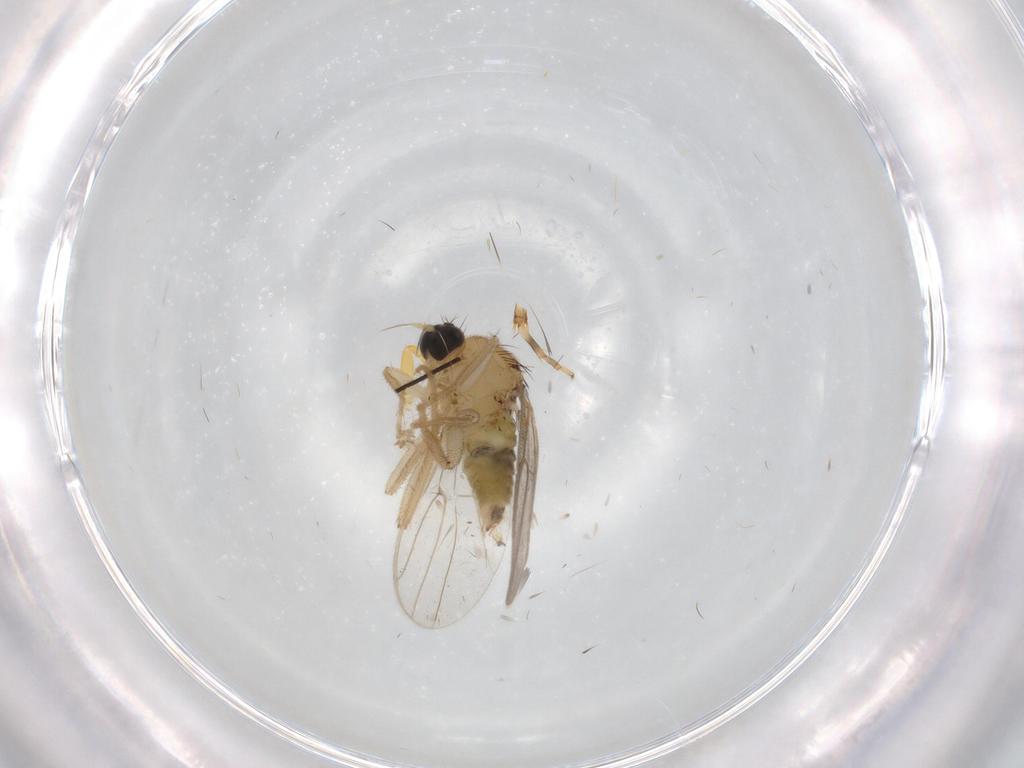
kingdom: Animalia
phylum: Arthropoda
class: Insecta
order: Diptera
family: Hybotidae
